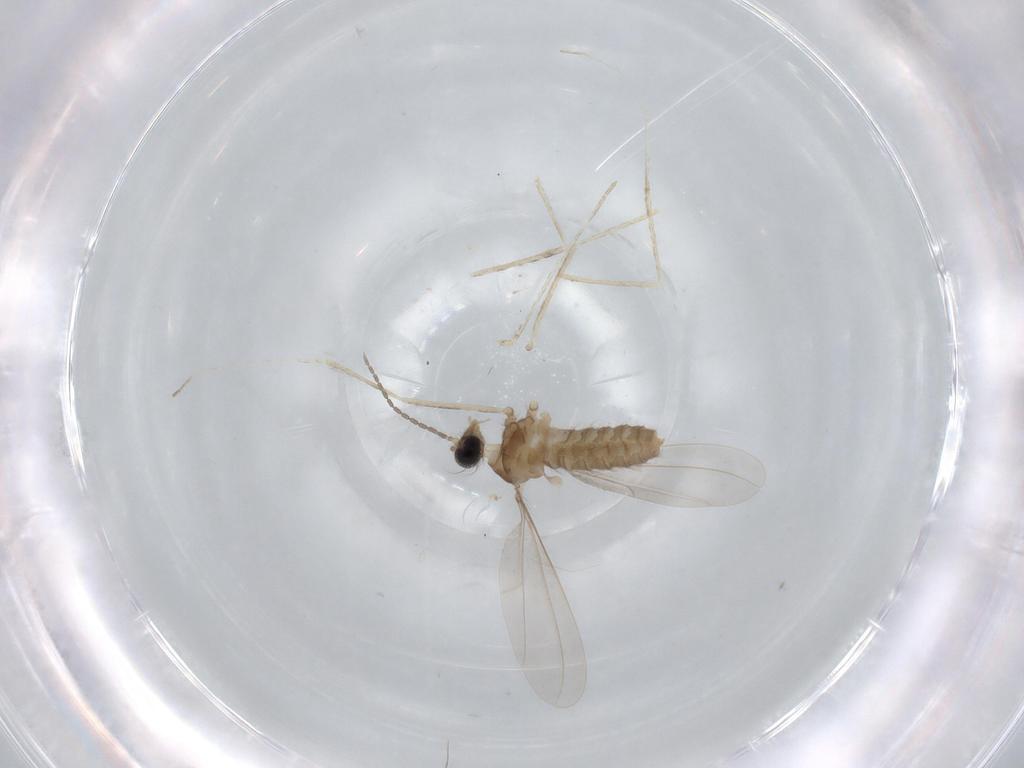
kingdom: Animalia
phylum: Arthropoda
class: Insecta
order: Diptera
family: Cecidomyiidae
